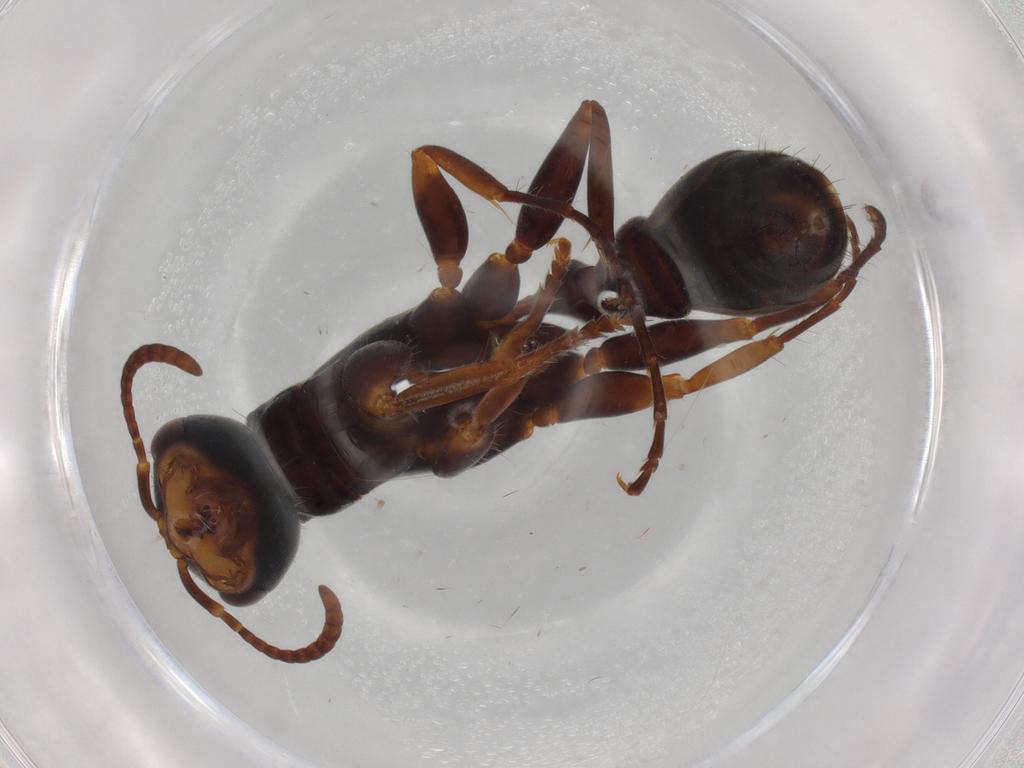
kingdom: Animalia
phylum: Arthropoda
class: Insecta
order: Hymenoptera
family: Formicidae
